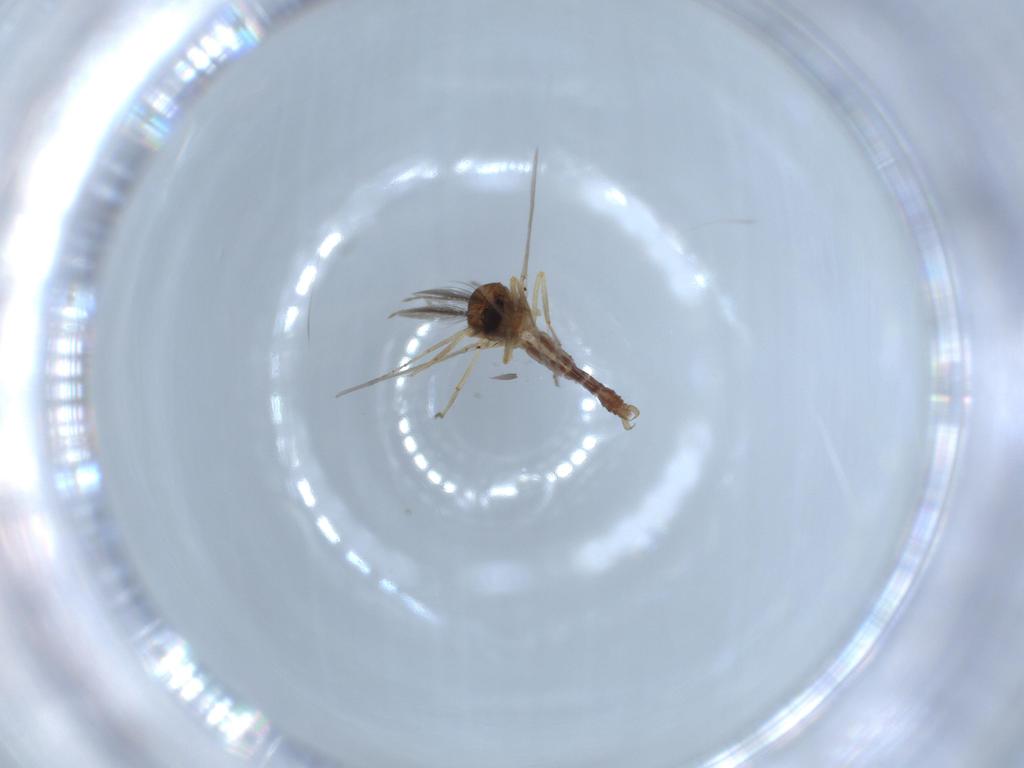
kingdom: Animalia
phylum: Arthropoda
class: Insecta
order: Diptera
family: Ceratopogonidae
